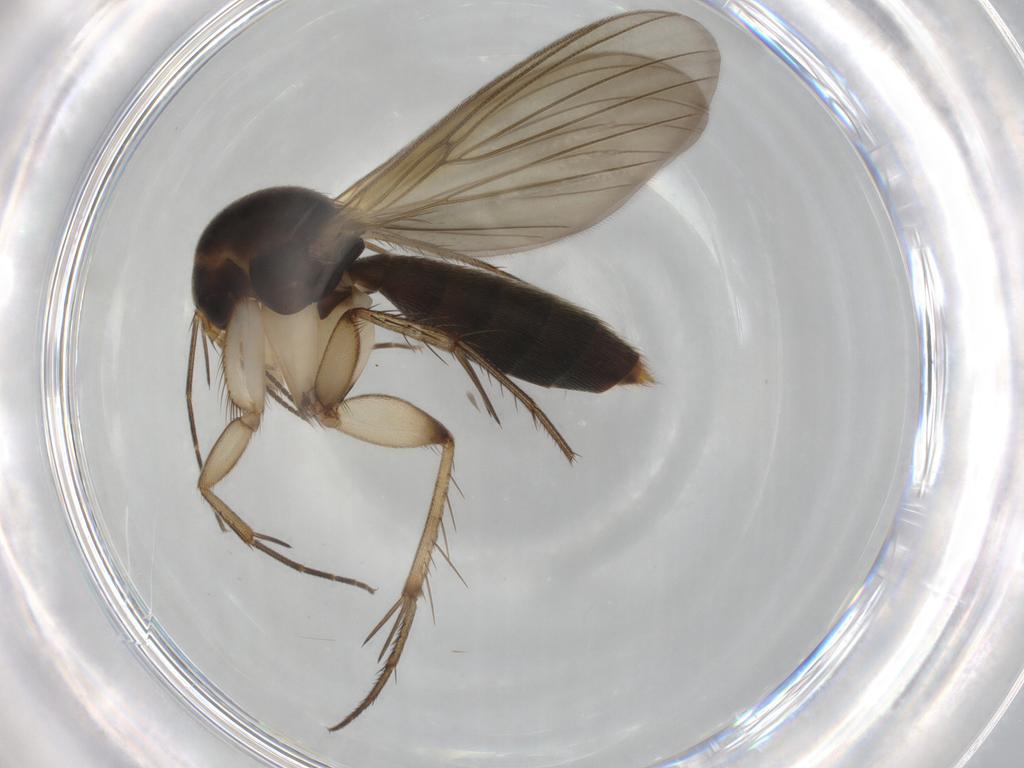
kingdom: Animalia
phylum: Arthropoda
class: Insecta
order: Diptera
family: Mycetophilidae
